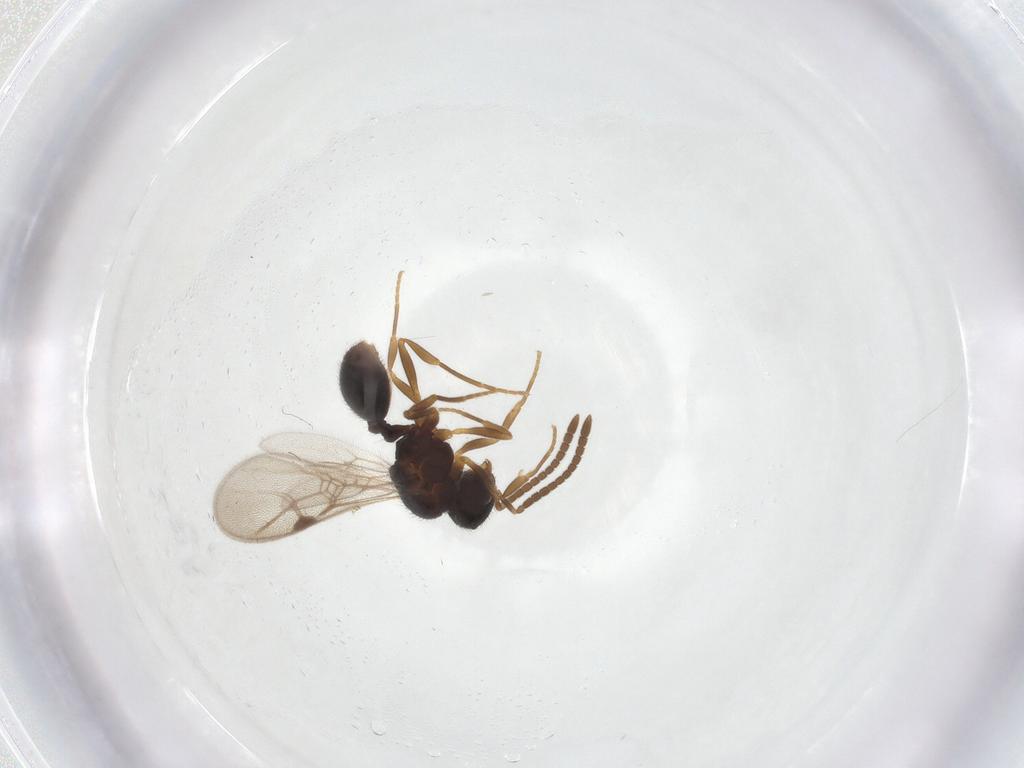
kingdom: Animalia
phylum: Arthropoda
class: Insecta
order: Hymenoptera
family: Formicidae
